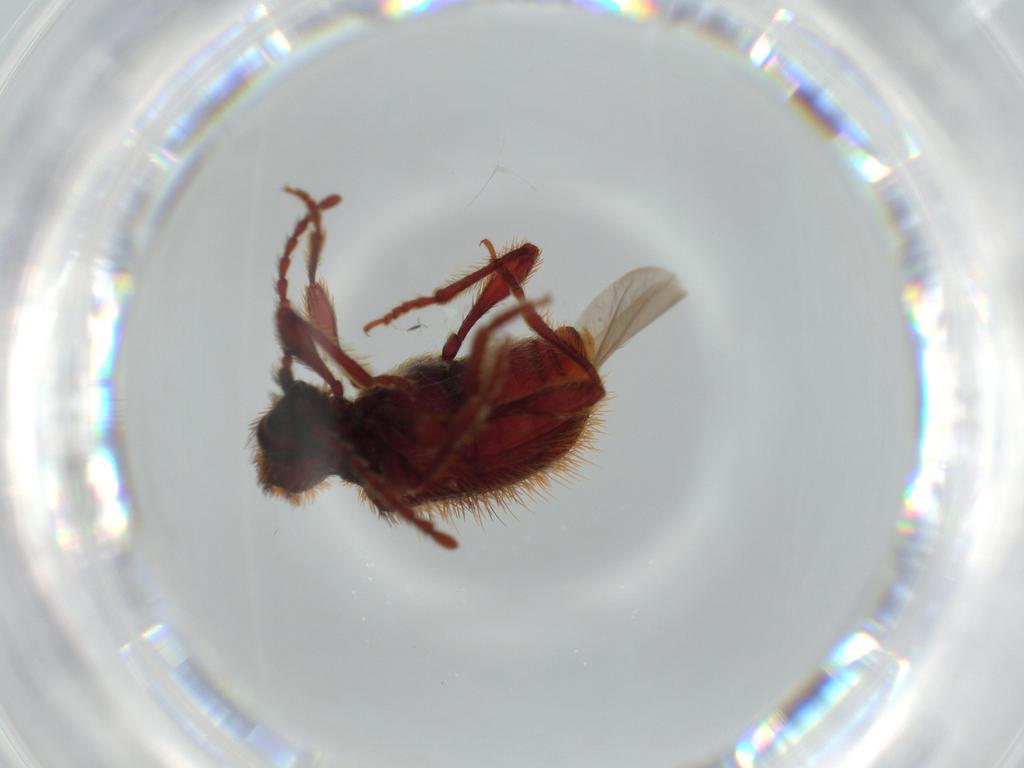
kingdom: Animalia
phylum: Arthropoda
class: Insecta
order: Coleoptera
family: Ptinidae
